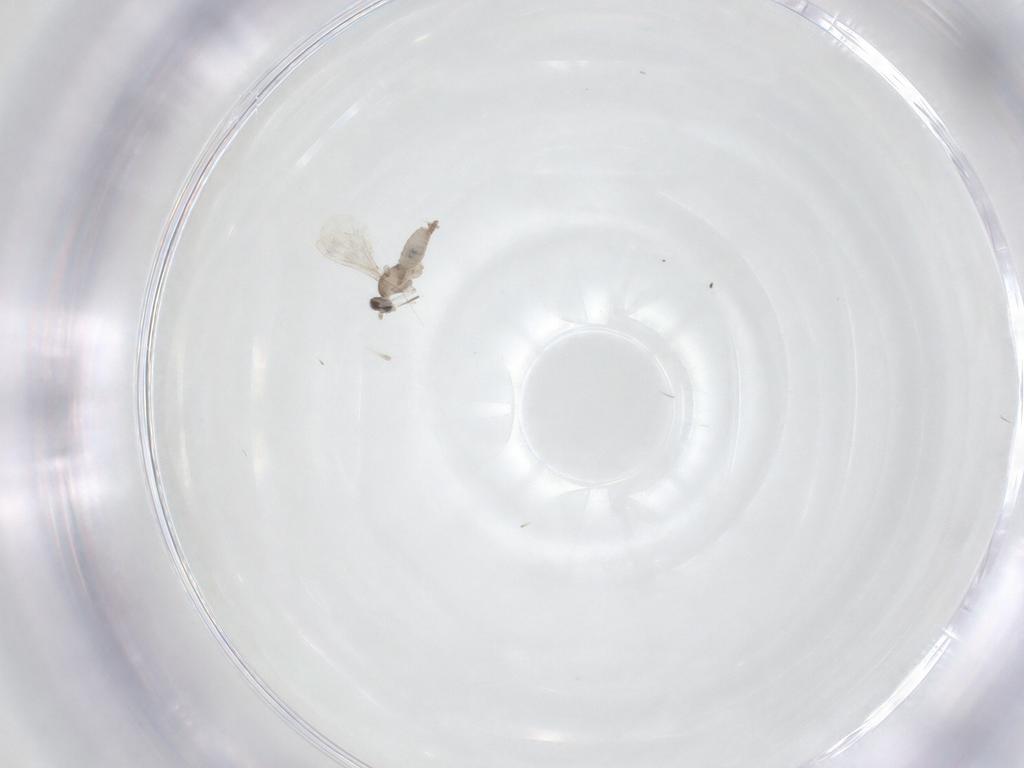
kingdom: Animalia
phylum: Arthropoda
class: Insecta
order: Diptera
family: Cecidomyiidae
